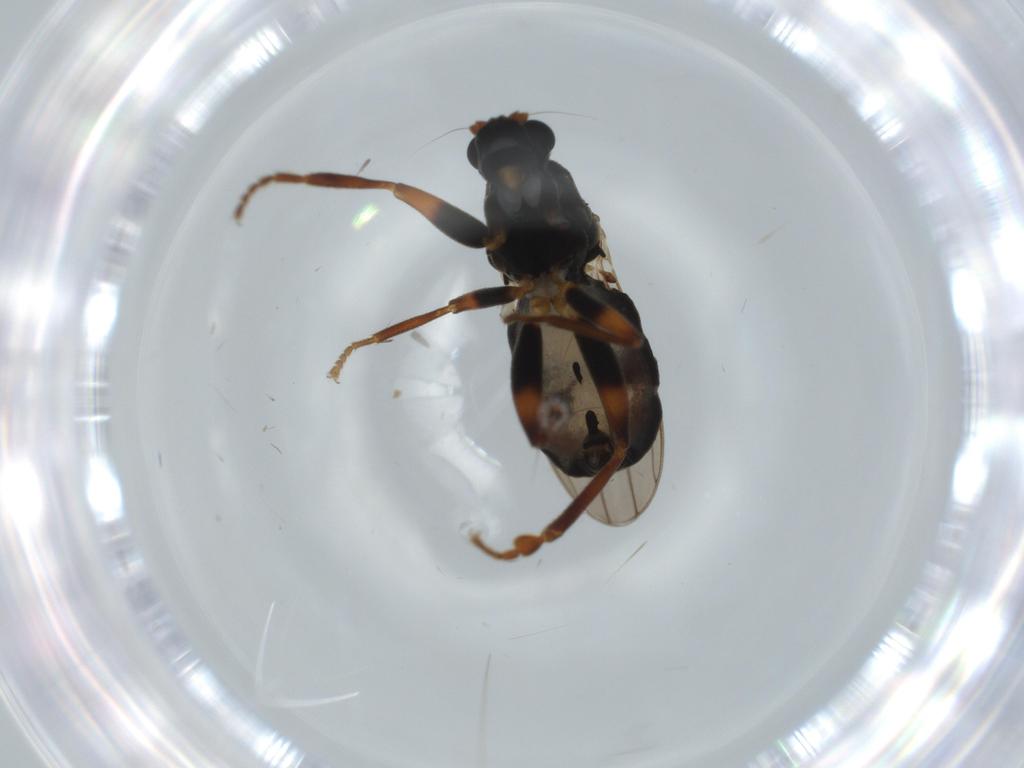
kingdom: Animalia
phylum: Arthropoda
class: Insecta
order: Diptera
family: Sphaeroceridae
